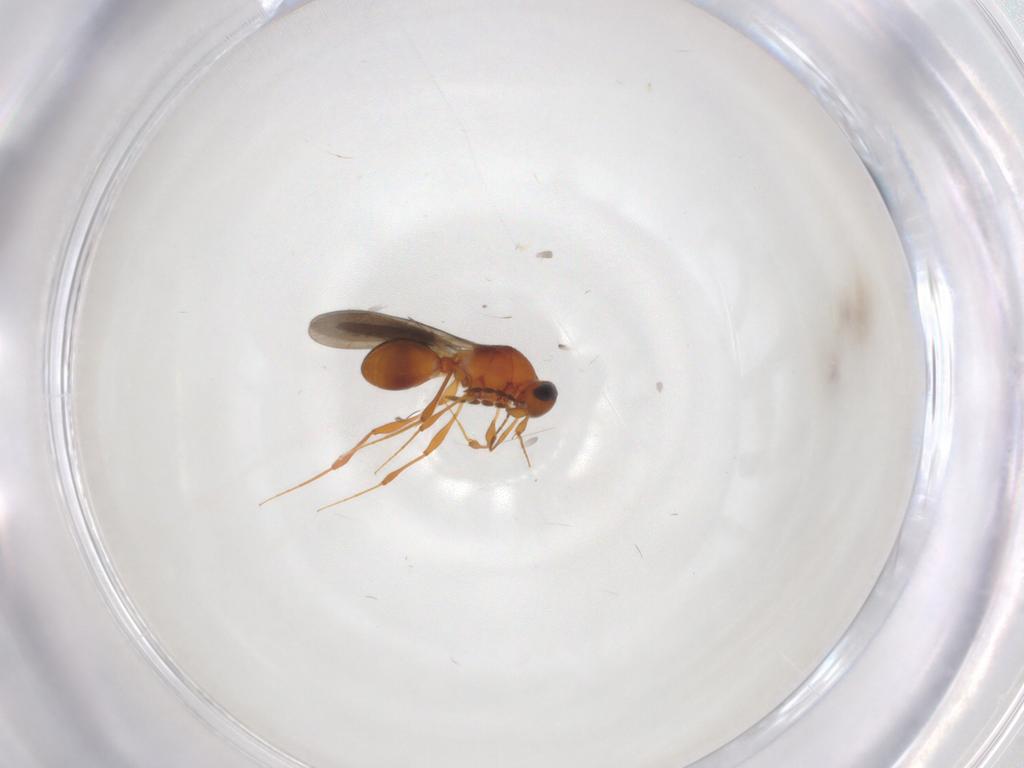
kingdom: Animalia
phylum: Arthropoda
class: Insecta
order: Hymenoptera
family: Platygastridae
